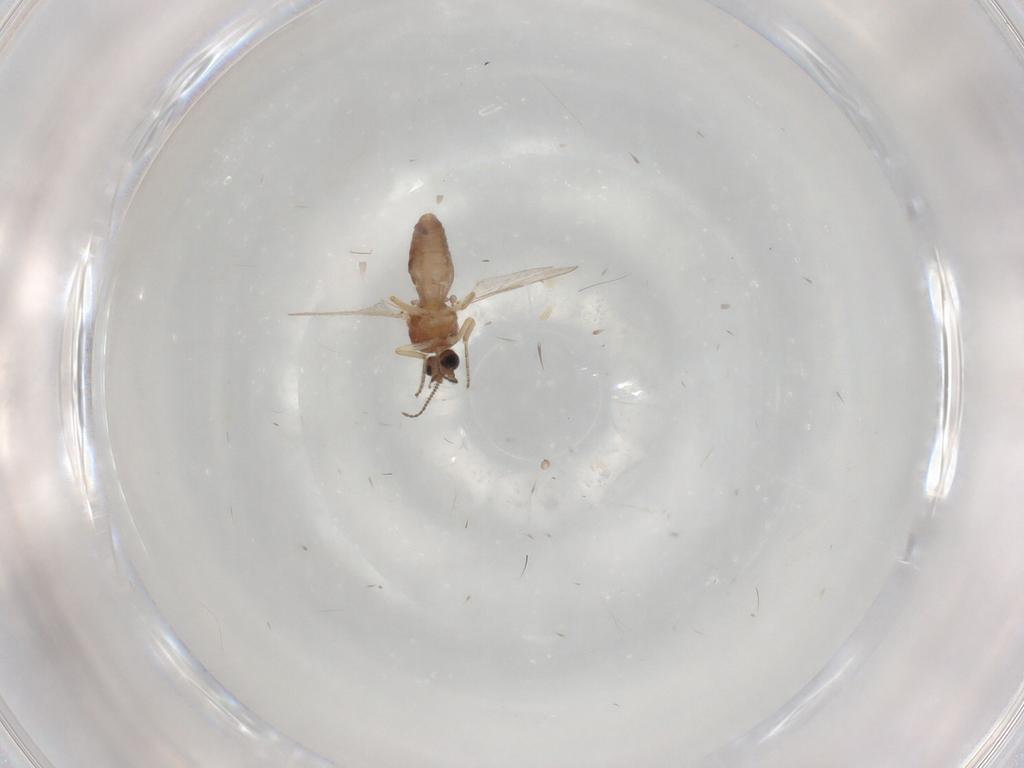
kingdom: Animalia
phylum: Arthropoda
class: Insecta
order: Diptera
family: Ceratopogonidae
